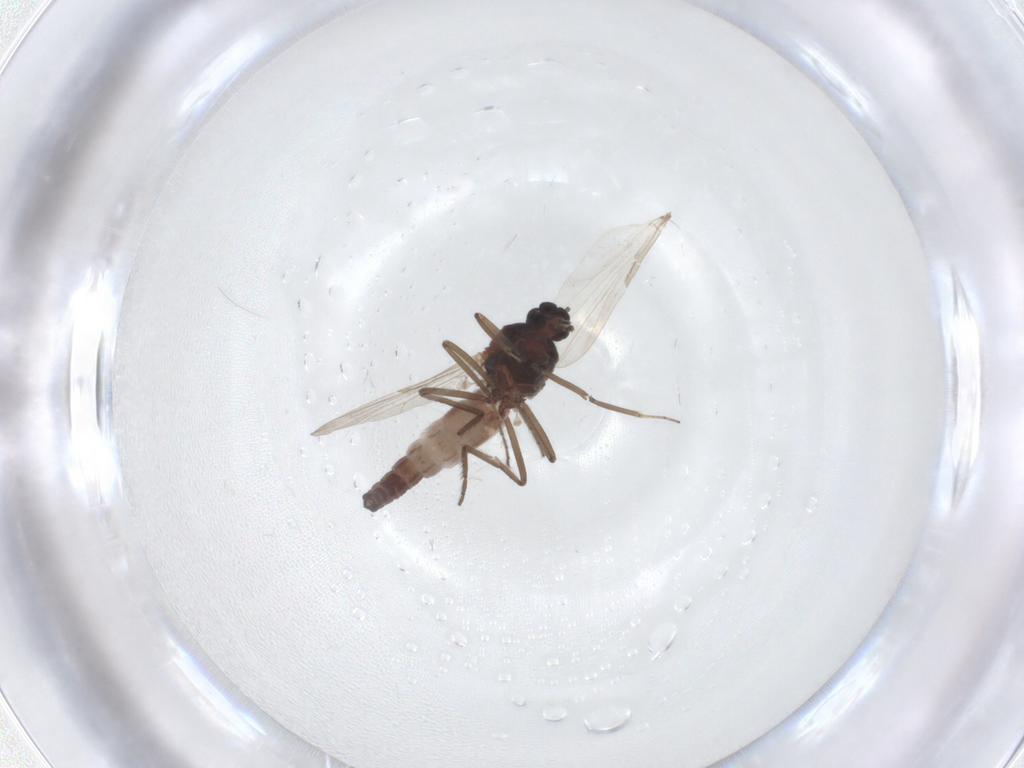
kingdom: Animalia
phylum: Arthropoda
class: Insecta
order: Diptera
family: Ceratopogonidae
